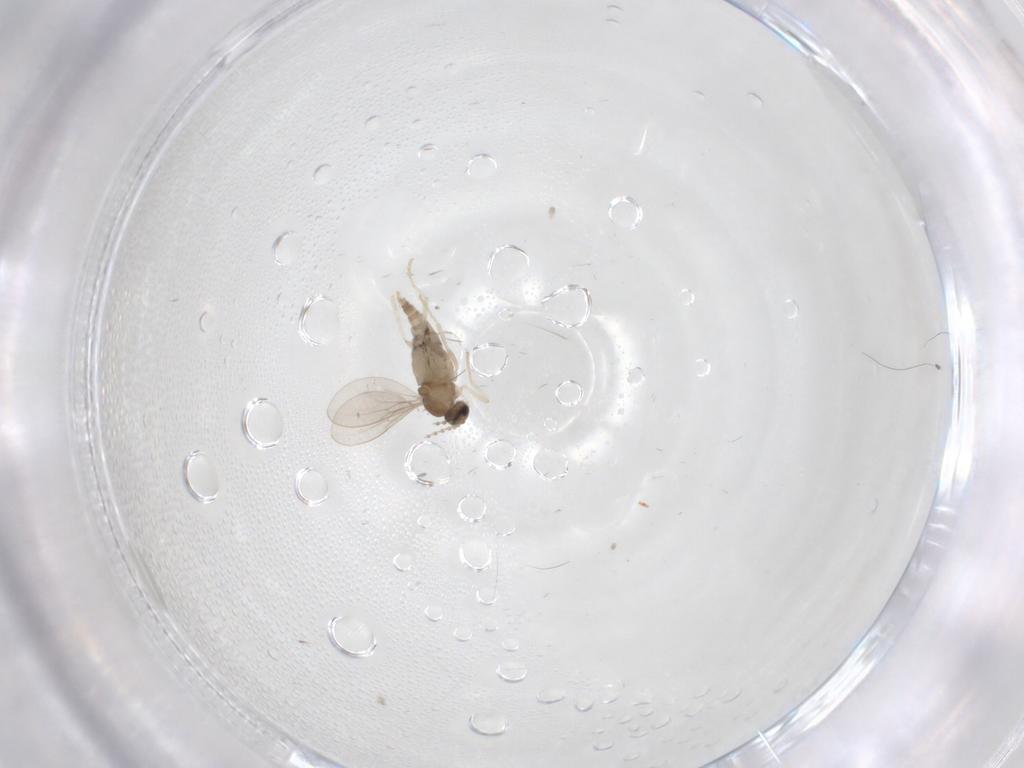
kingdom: Animalia
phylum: Arthropoda
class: Insecta
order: Diptera
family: Cecidomyiidae
